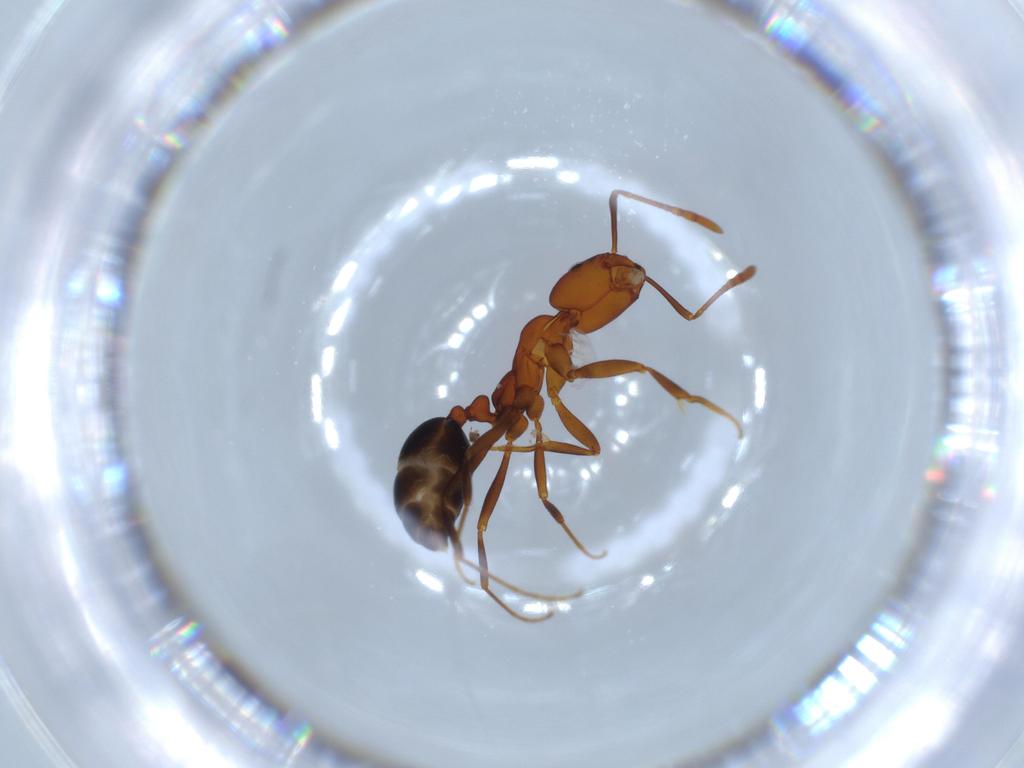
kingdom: Animalia
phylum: Arthropoda
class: Insecta
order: Hymenoptera
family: Formicidae
